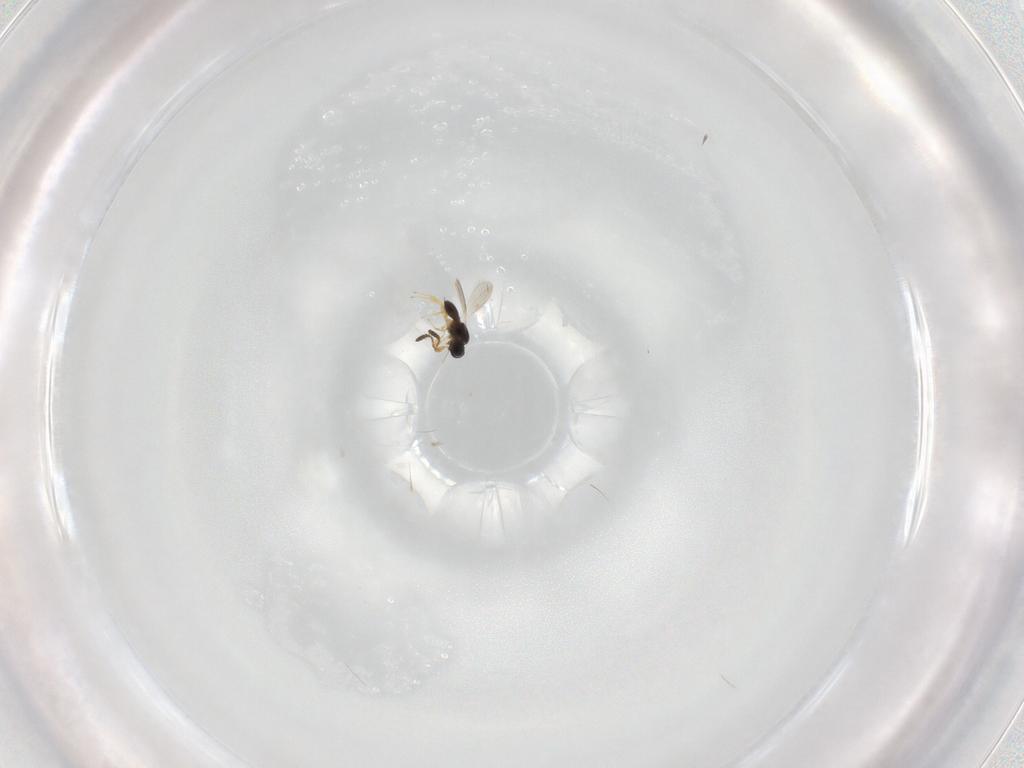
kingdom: Animalia
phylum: Arthropoda
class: Insecta
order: Hymenoptera
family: Scelionidae
